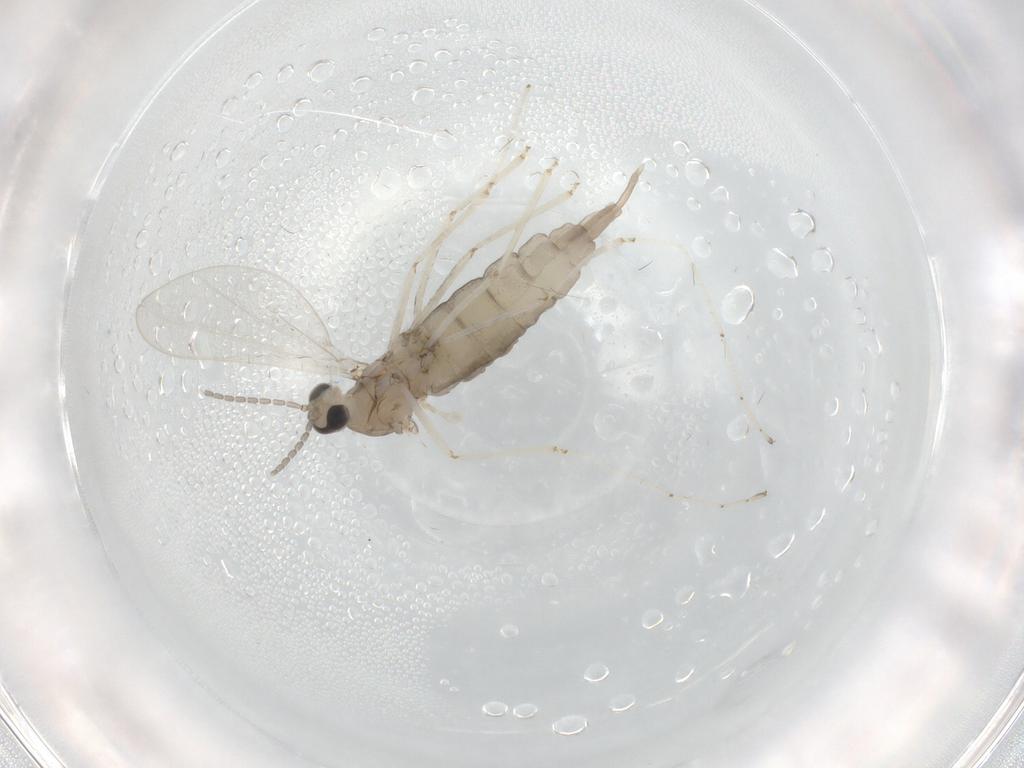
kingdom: Animalia
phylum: Arthropoda
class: Insecta
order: Diptera
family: Cecidomyiidae
